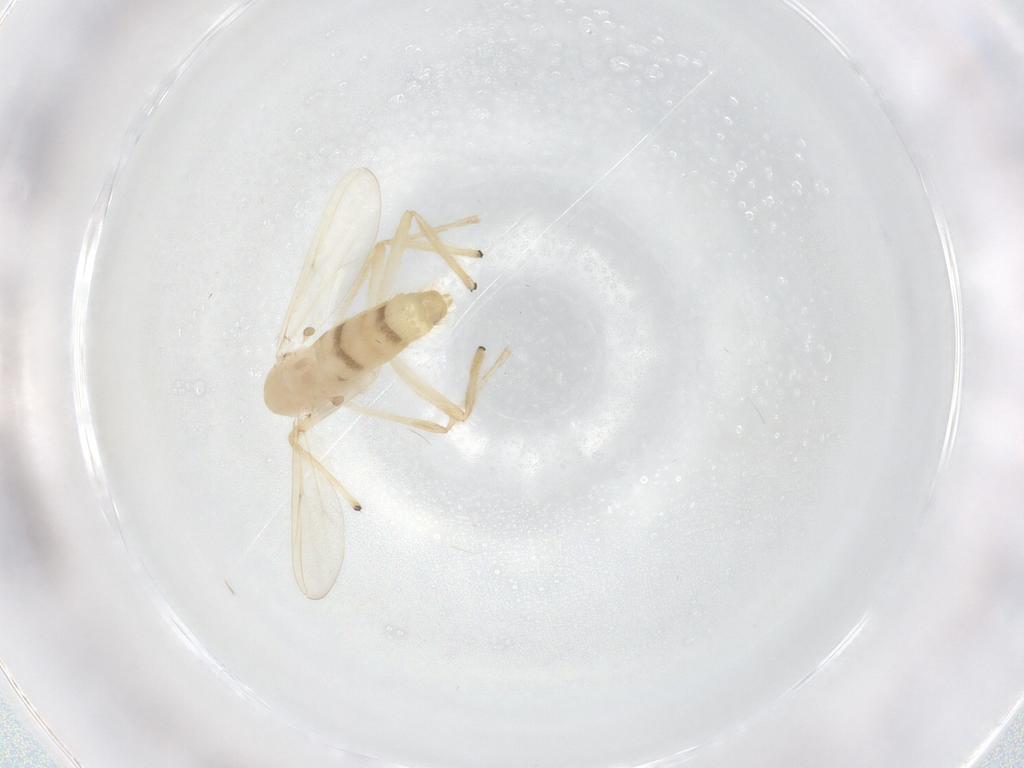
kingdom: Animalia
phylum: Arthropoda
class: Insecta
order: Diptera
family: Chironomidae
